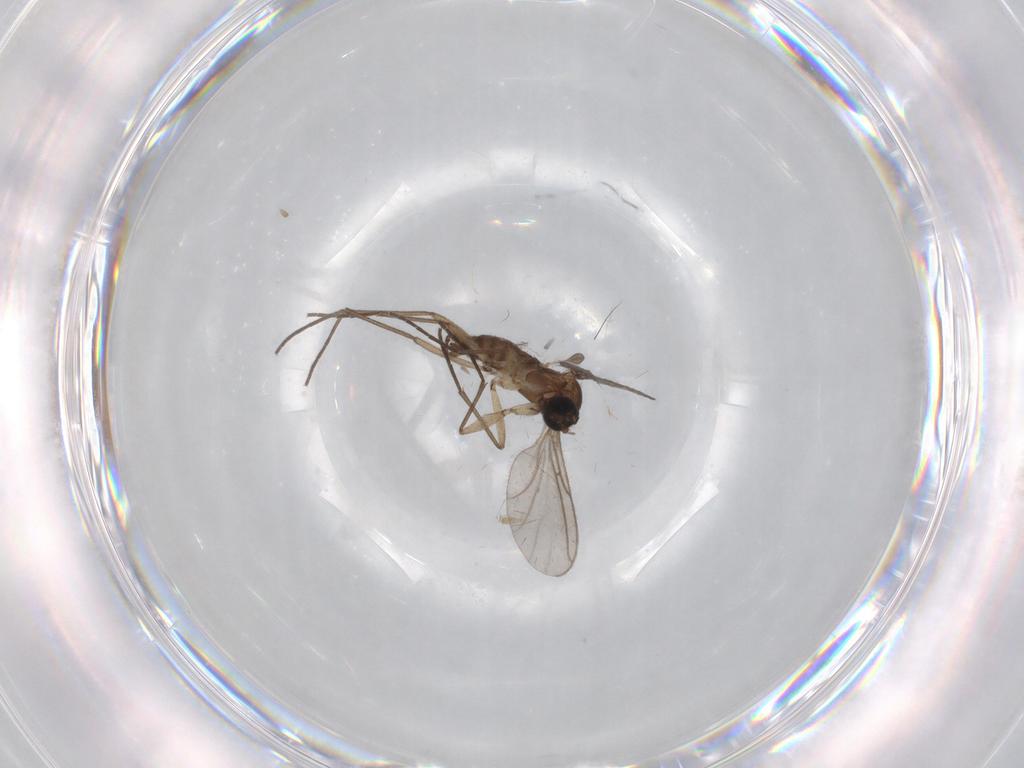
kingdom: Animalia
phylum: Arthropoda
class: Insecta
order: Diptera
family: Sciaridae
